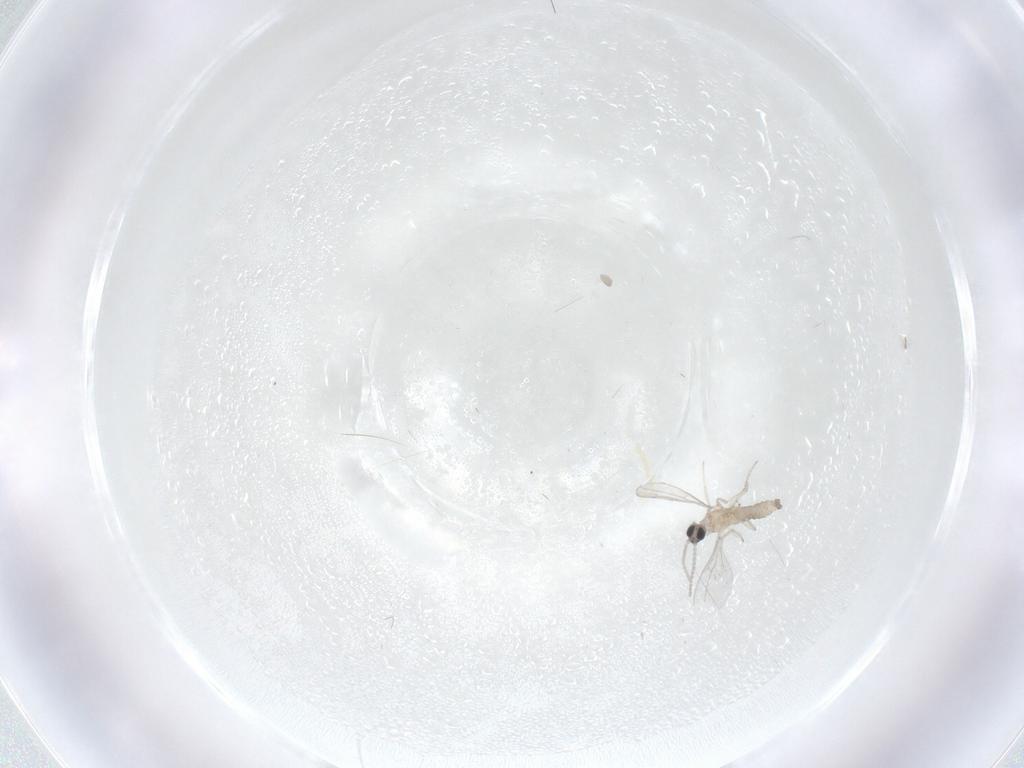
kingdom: Animalia
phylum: Arthropoda
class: Insecta
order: Diptera
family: Cecidomyiidae
